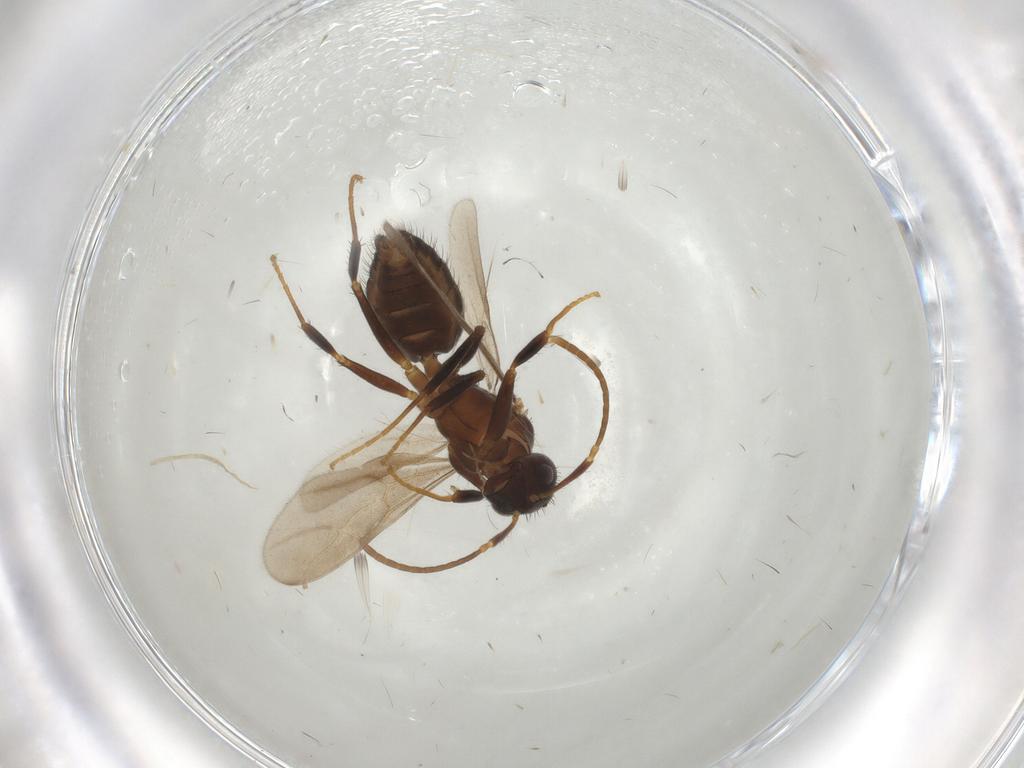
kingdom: Animalia
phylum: Arthropoda
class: Insecta
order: Hymenoptera
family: Formicidae
